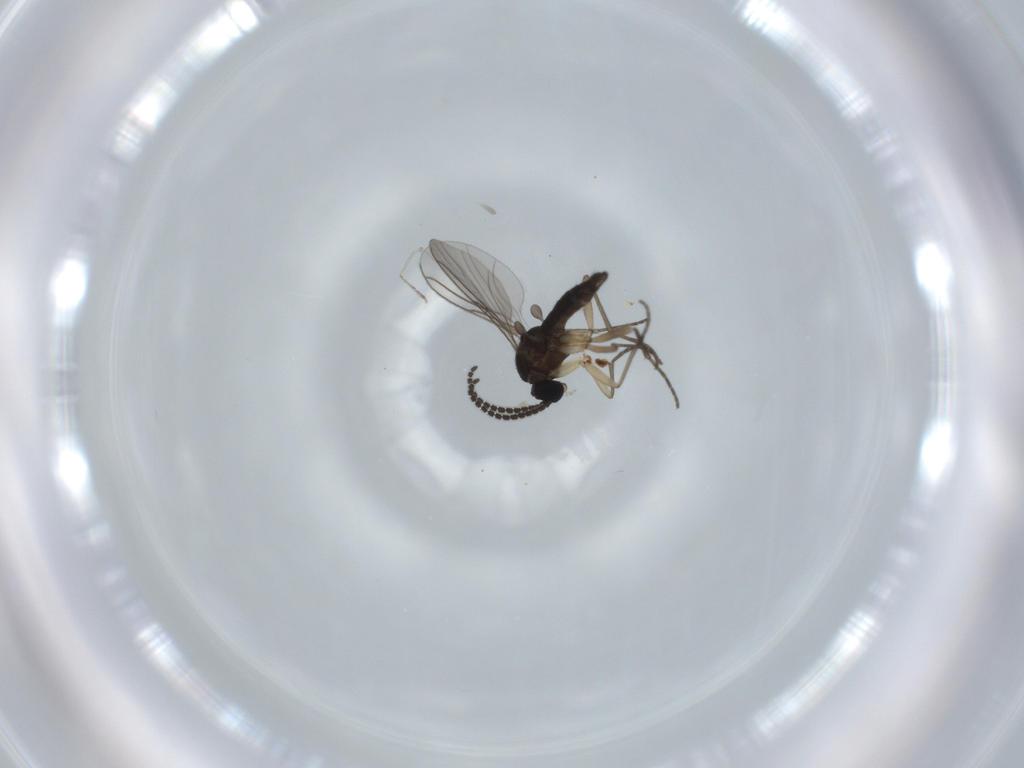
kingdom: Animalia
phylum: Arthropoda
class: Insecta
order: Diptera
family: Sciaridae
